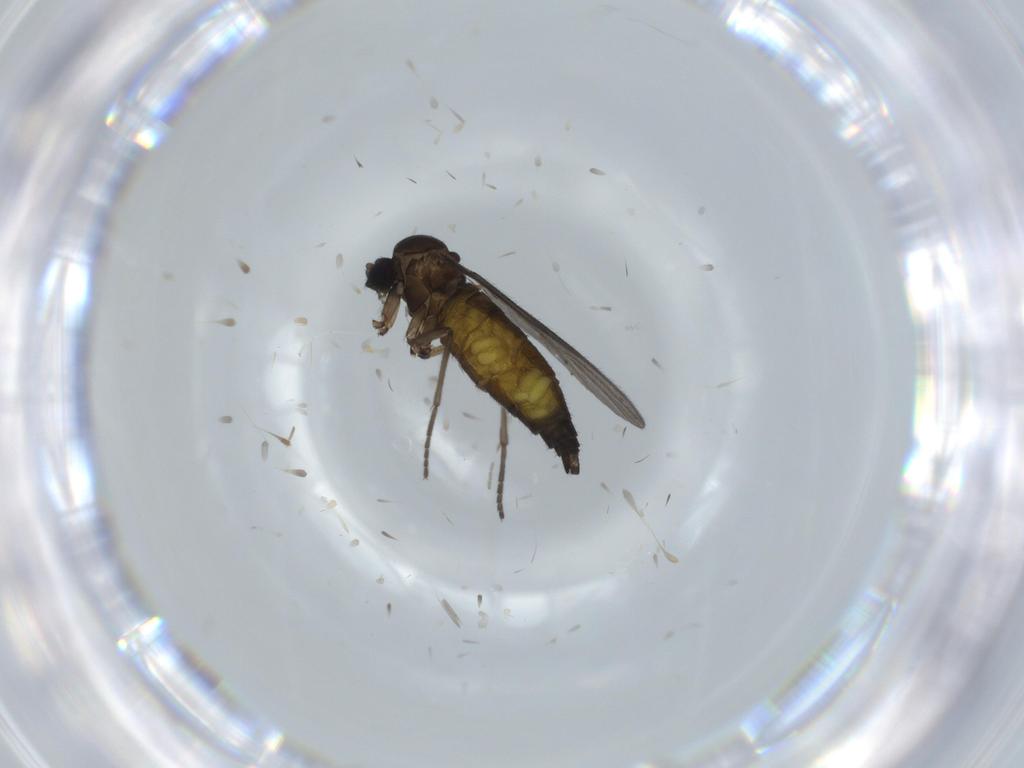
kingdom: Animalia
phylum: Arthropoda
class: Insecta
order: Diptera
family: Sciaridae
